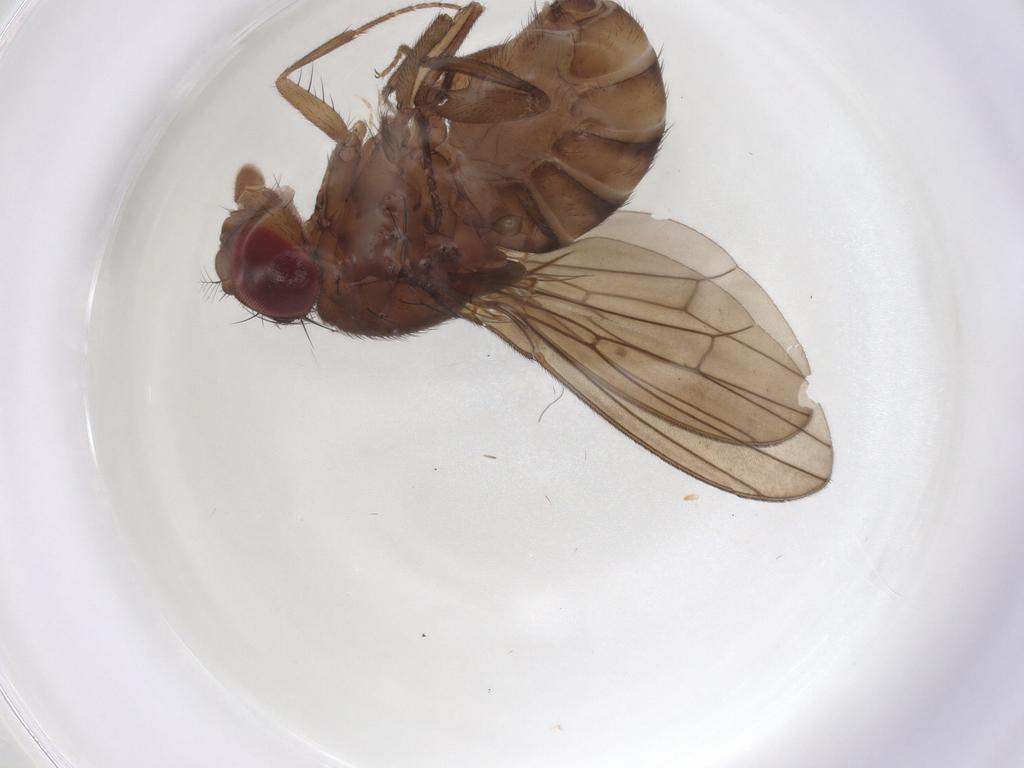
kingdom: Animalia
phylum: Arthropoda
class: Insecta
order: Diptera
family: Drosophilidae
